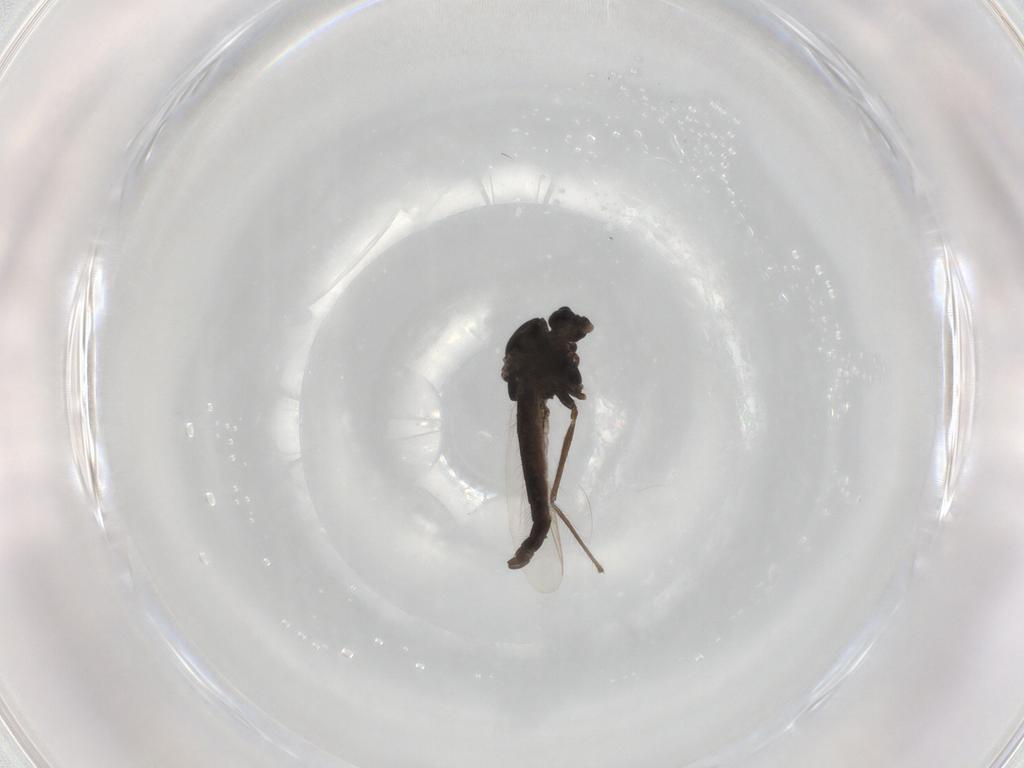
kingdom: Animalia
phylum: Arthropoda
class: Insecta
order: Diptera
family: Chironomidae
